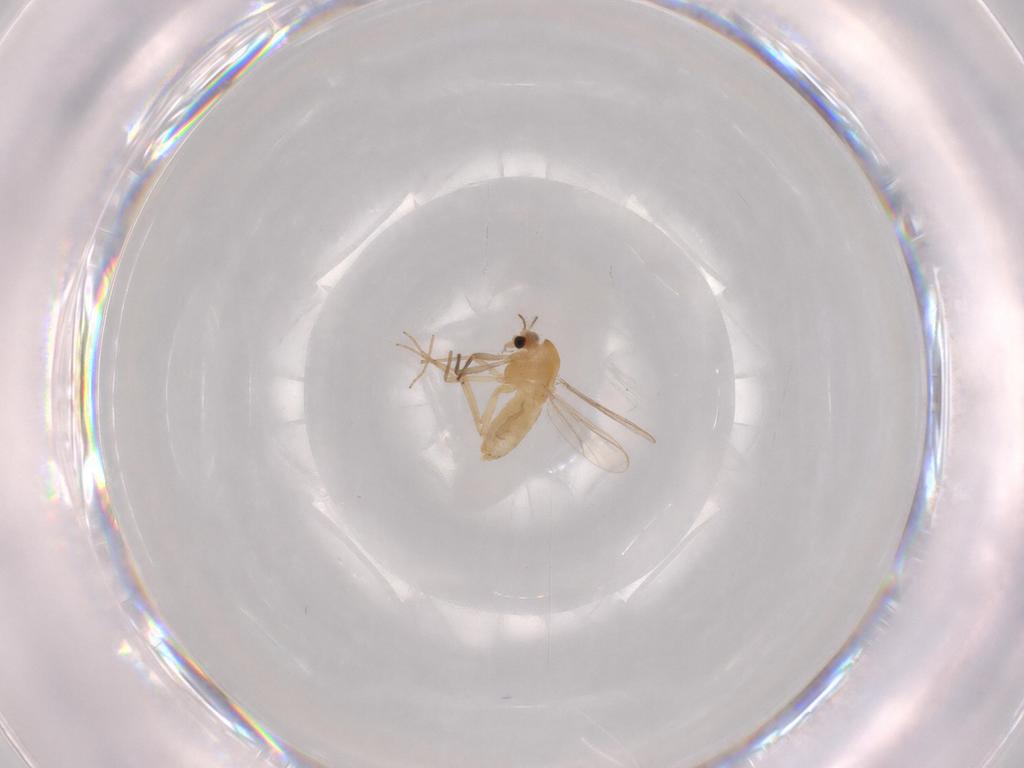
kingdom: Animalia
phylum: Arthropoda
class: Insecta
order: Diptera
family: Chironomidae
